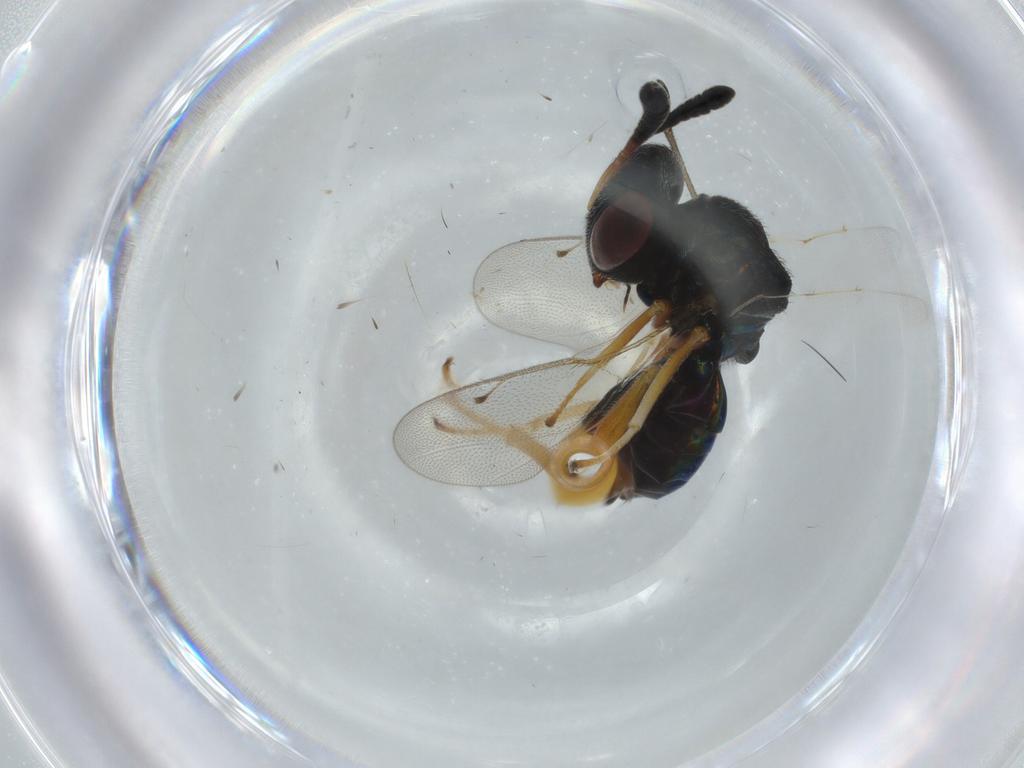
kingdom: Animalia
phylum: Arthropoda
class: Insecta
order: Hymenoptera
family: Agaonidae
